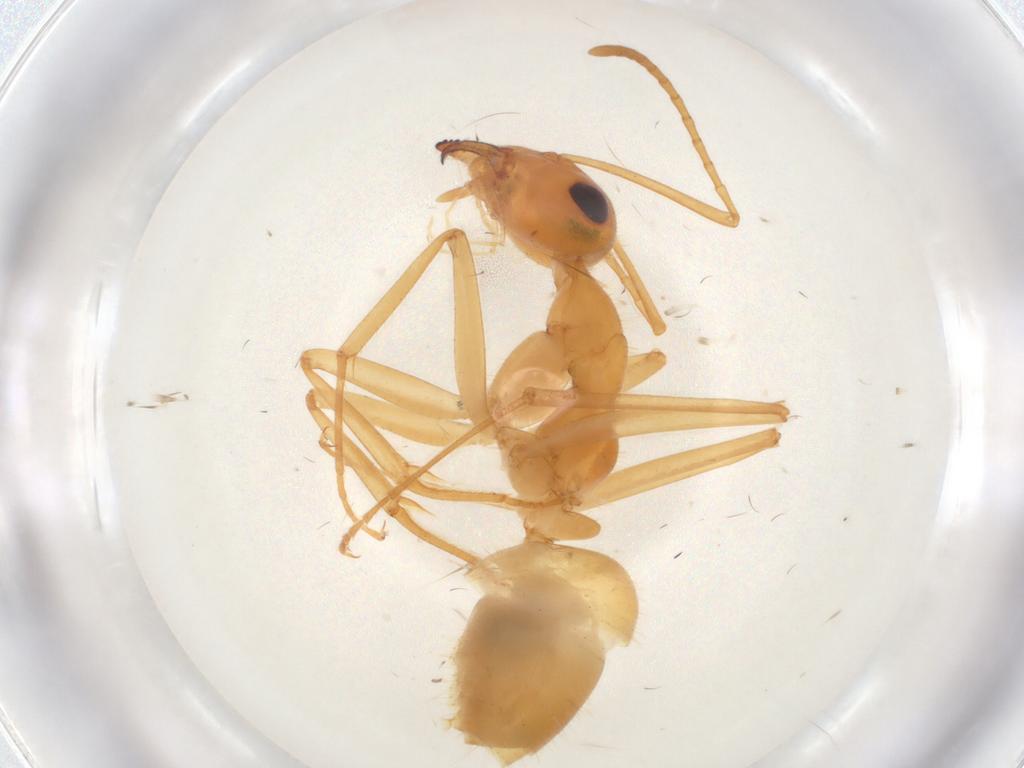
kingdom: Animalia
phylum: Arthropoda
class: Insecta
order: Hymenoptera
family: Formicidae
